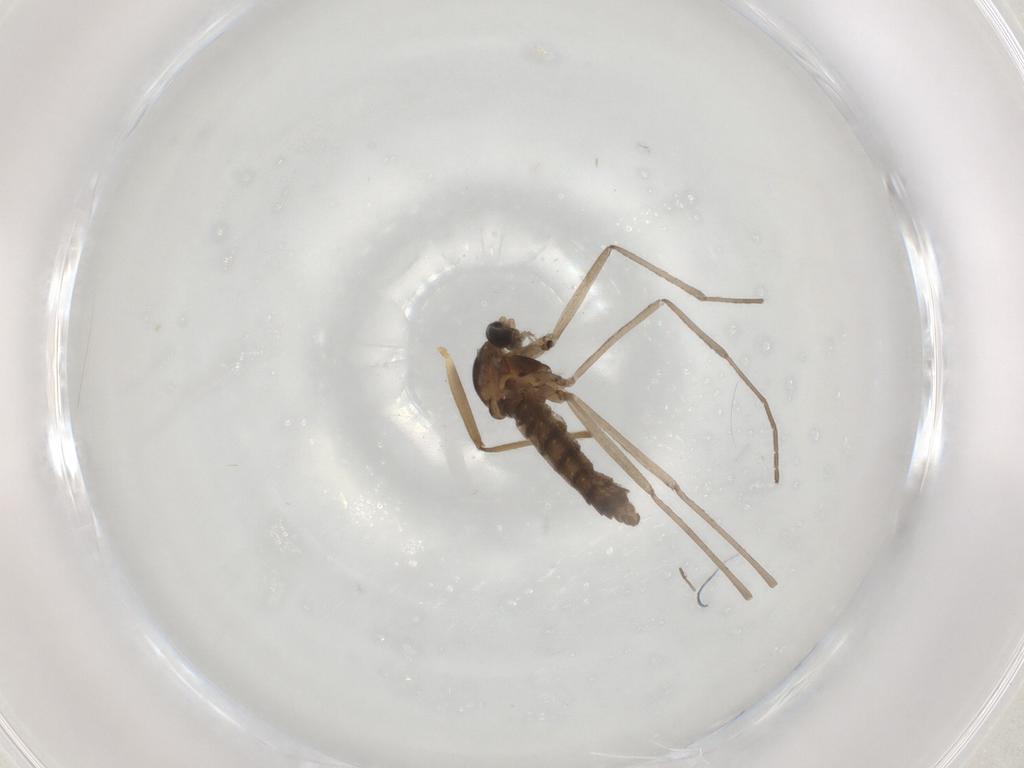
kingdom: Animalia
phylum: Arthropoda
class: Insecta
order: Diptera
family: Cecidomyiidae
